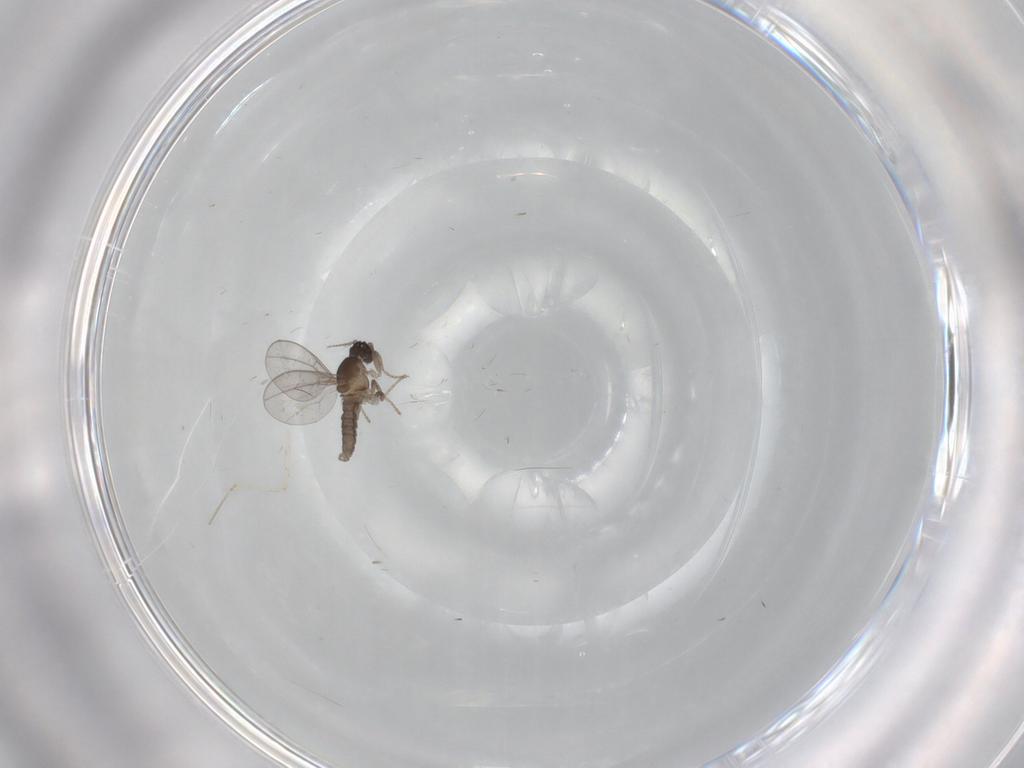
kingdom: Animalia
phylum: Arthropoda
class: Insecta
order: Diptera
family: Cecidomyiidae
